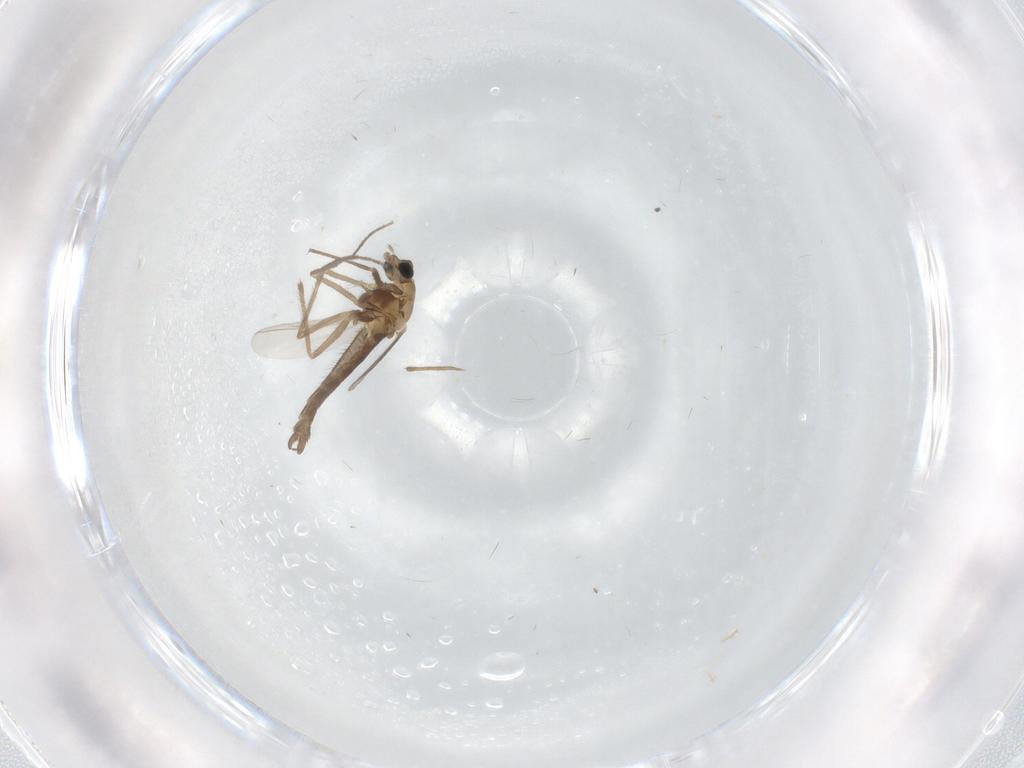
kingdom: Animalia
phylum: Arthropoda
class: Insecta
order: Diptera
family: Chironomidae
